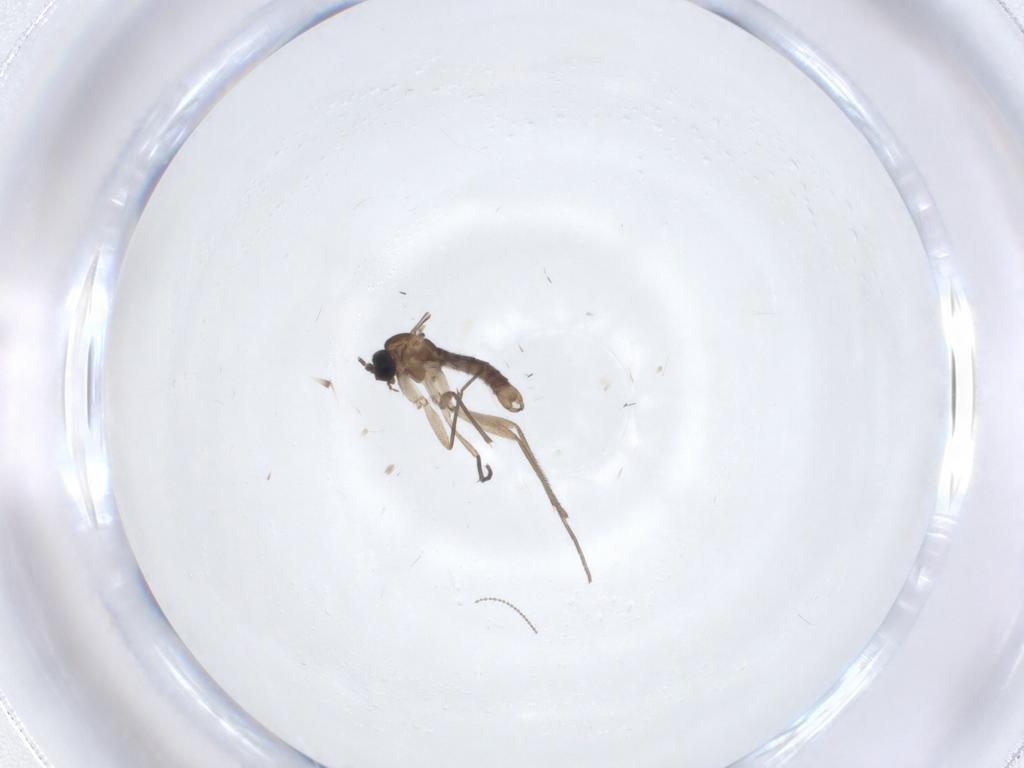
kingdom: Animalia
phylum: Arthropoda
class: Insecta
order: Diptera
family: Sciaridae
